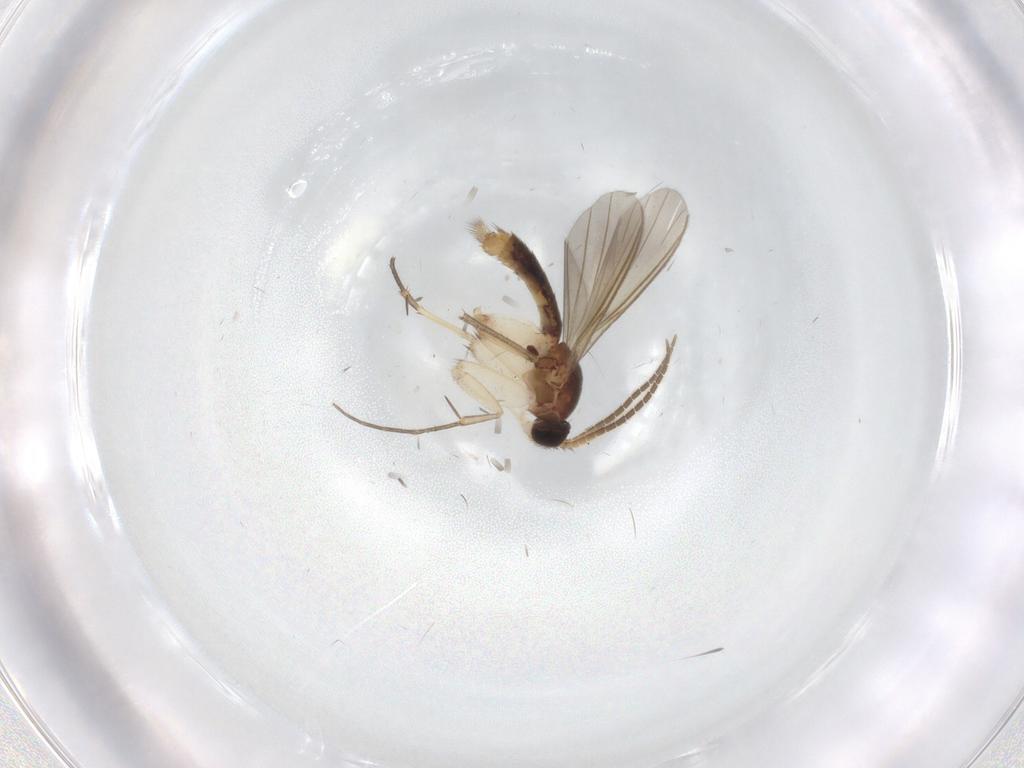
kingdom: Animalia
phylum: Arthropoda
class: Insecta
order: Diptera
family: Mycetophilidae
